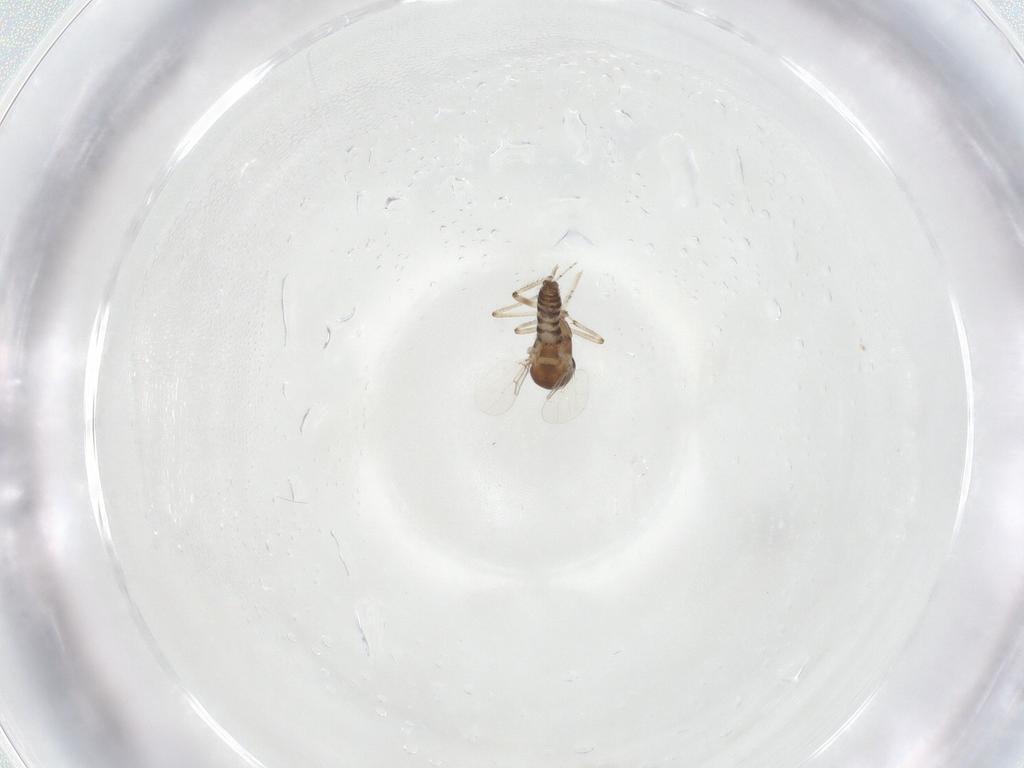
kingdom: Animalia
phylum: Arthropoda
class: Insecta
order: Diptera
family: Ceratopogonidae
